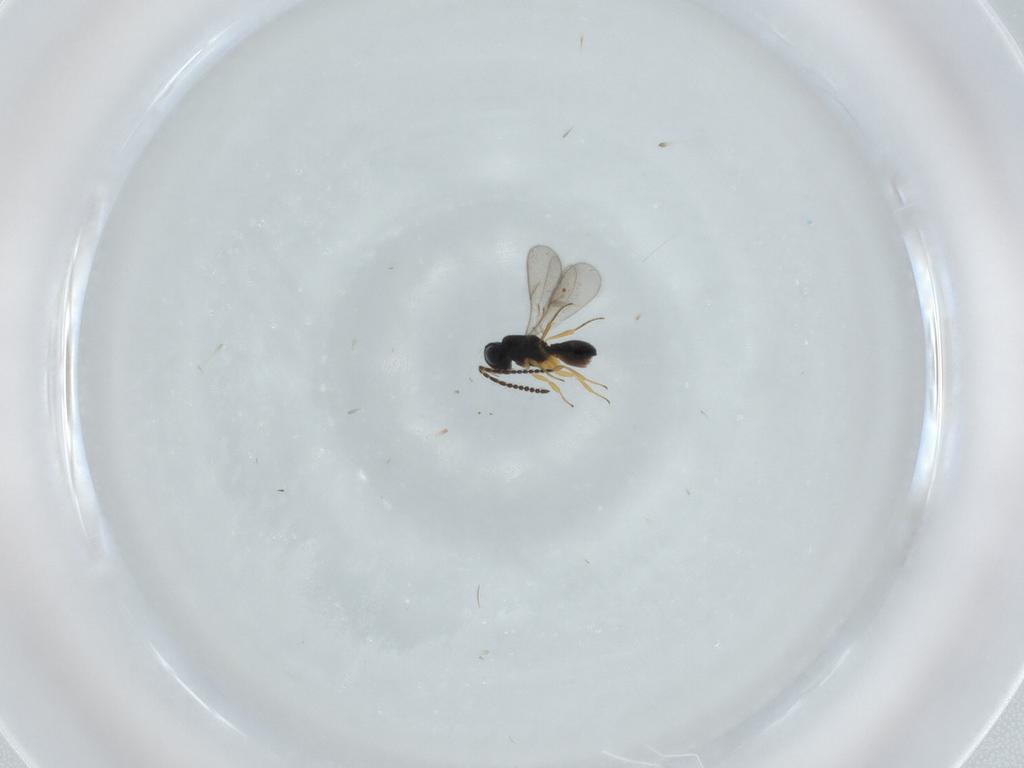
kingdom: Animalia
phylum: Arthropoda
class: Insecta
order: Hymenoptera
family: Scelionidae
